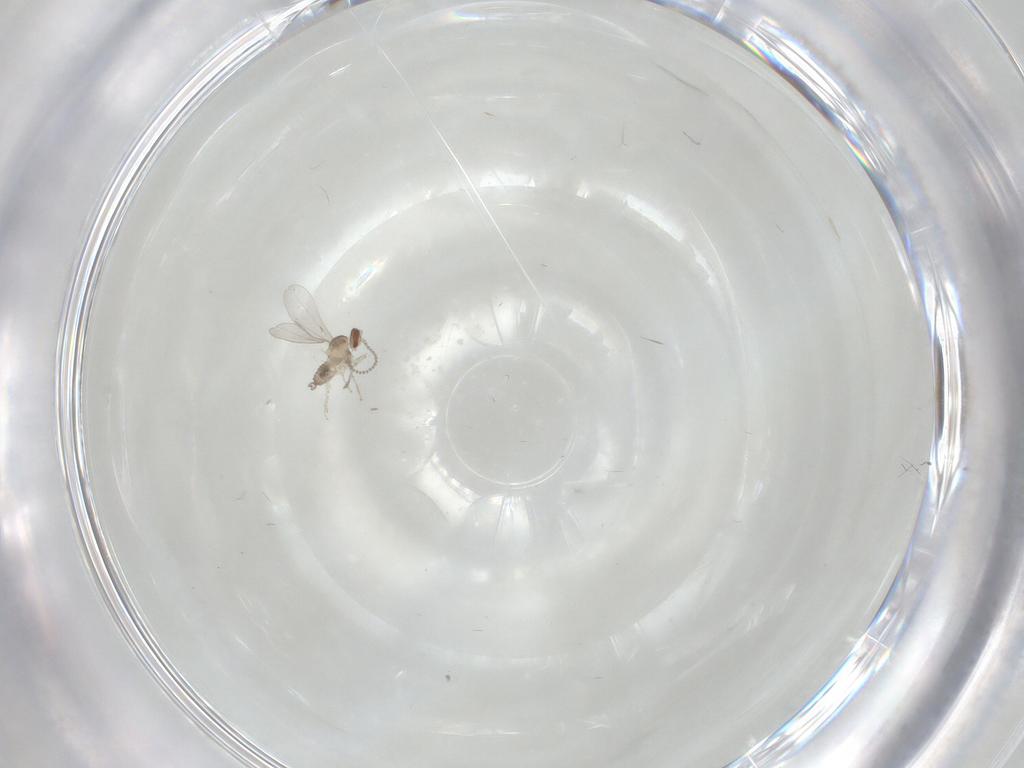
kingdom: Animalia
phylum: Arthropoda
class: Insecta
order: Diptera
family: Cecidomyiidae
